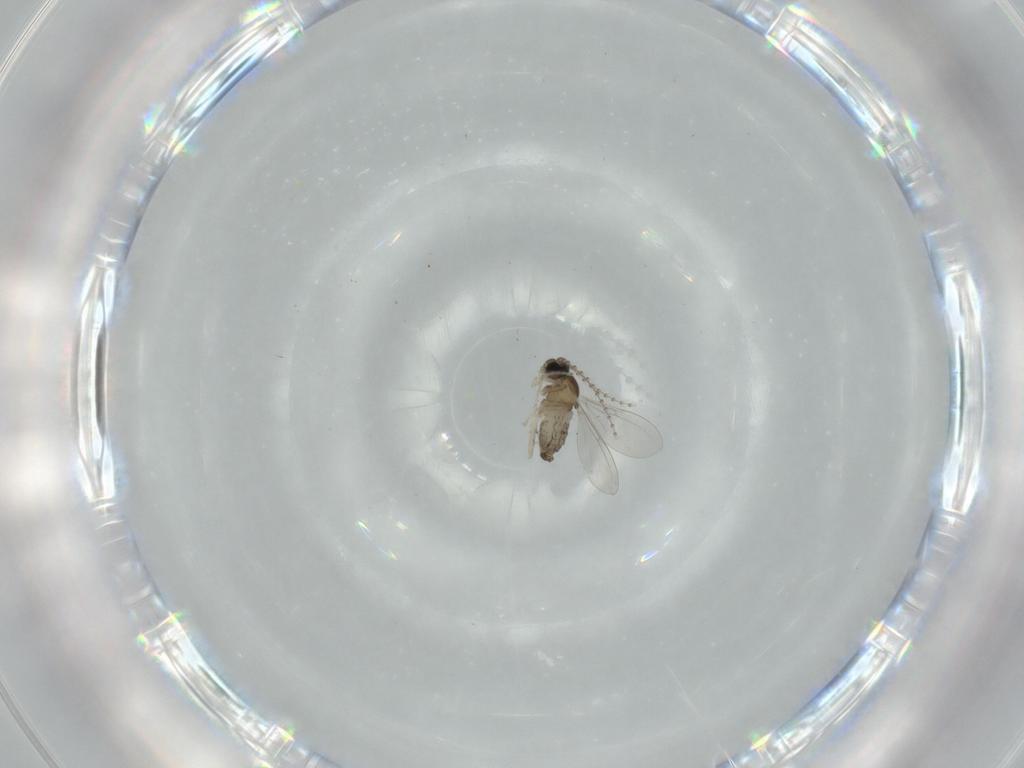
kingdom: Animalia
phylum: Arthropoda
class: Insecta
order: Diptera
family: Cecidomyiidae
